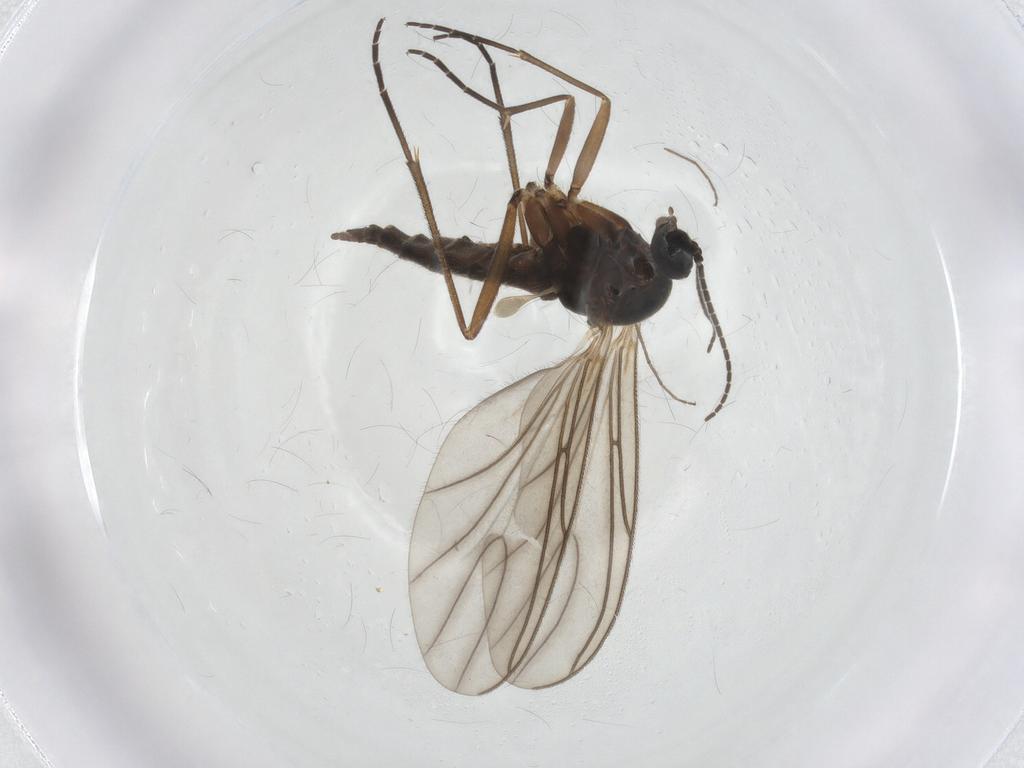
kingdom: Animalia
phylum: Arthropoda
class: Insecta
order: Diptera
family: Sciaridae
